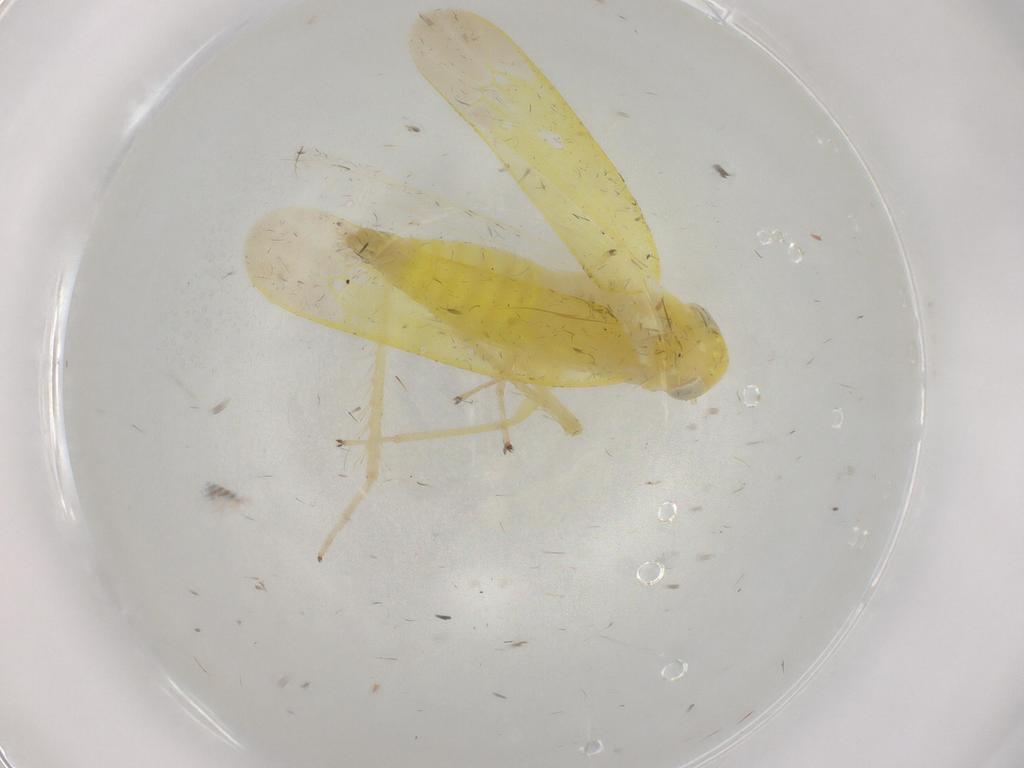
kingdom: Animalia
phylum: Arthropoda
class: Insecta
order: Hemiptera
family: Cicadellidae
